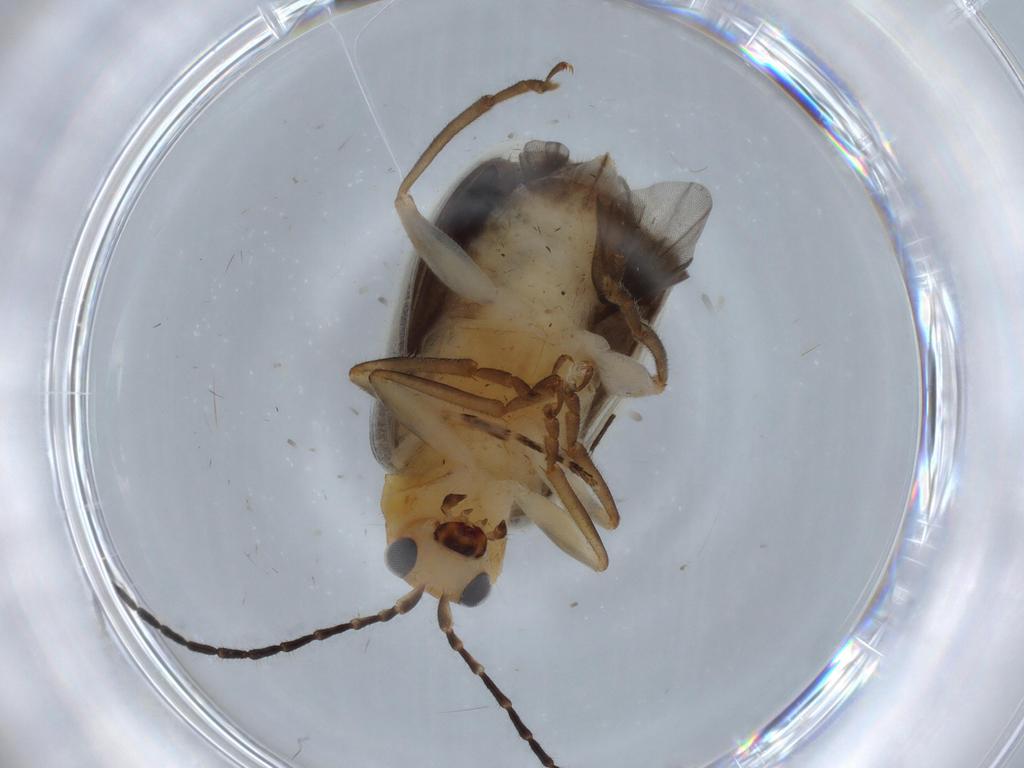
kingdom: Animalia
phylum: Arthropoda
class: Insecta
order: Coleoptera
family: Chrysomelidae
